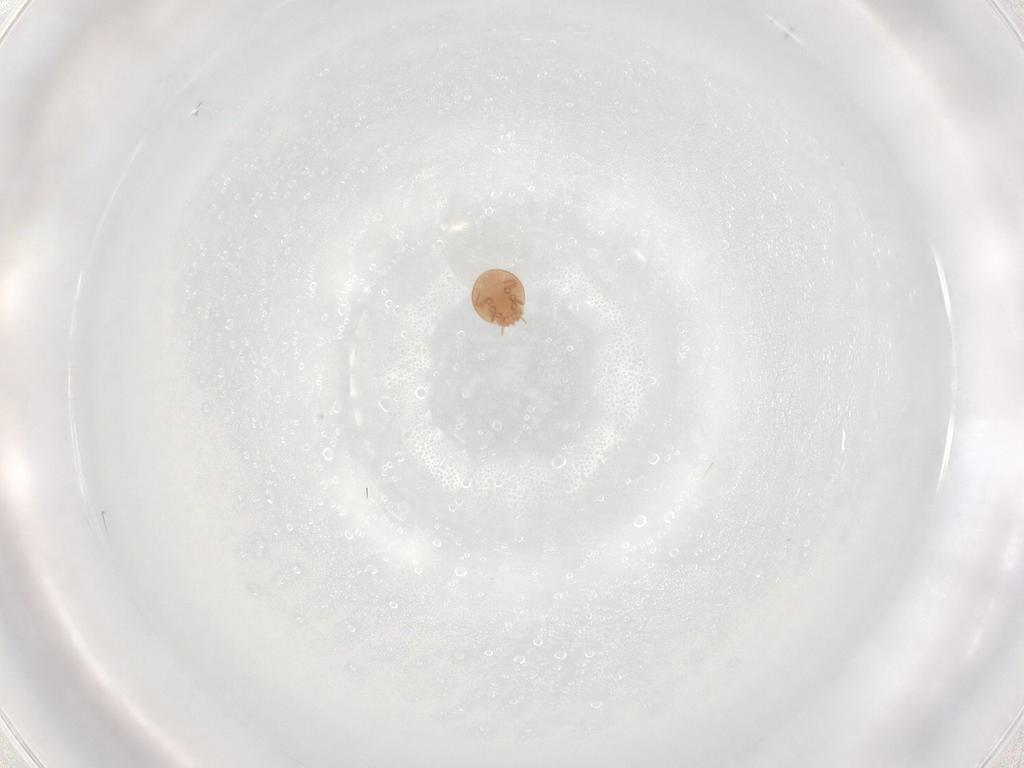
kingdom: Animalia
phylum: Arthropoda
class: Arachnida
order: Mesostigmata
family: Trematuridae
